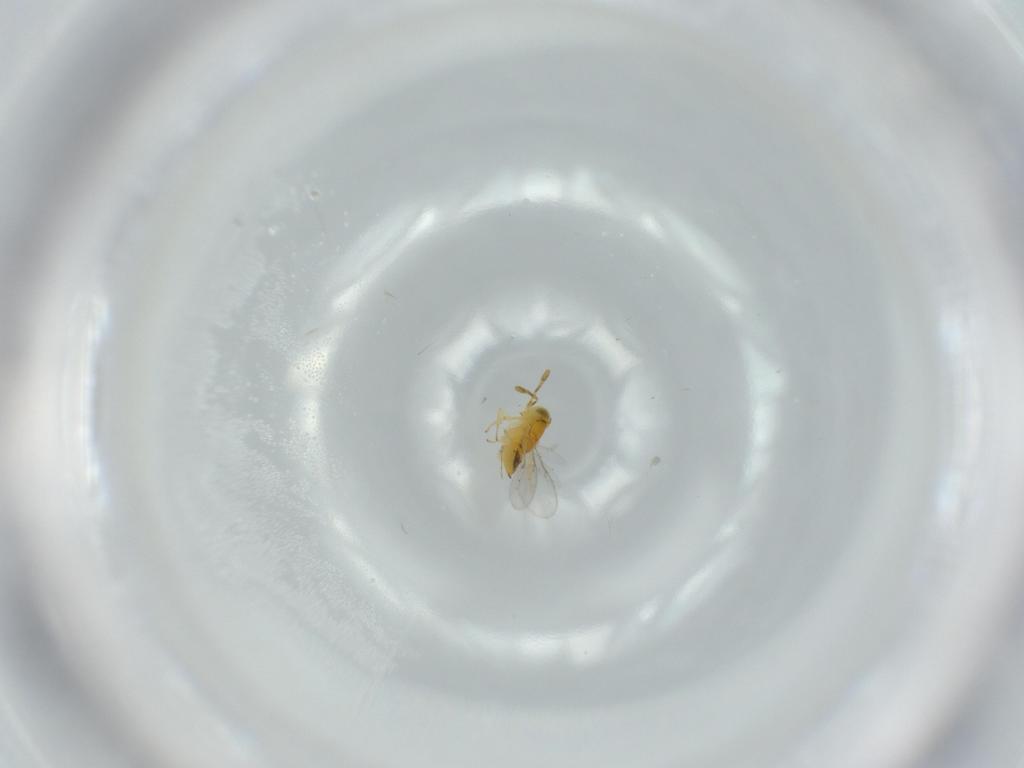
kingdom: Animalia
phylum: Arthropoda
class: Insecta
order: Hymenoptera
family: Encyrtidae
